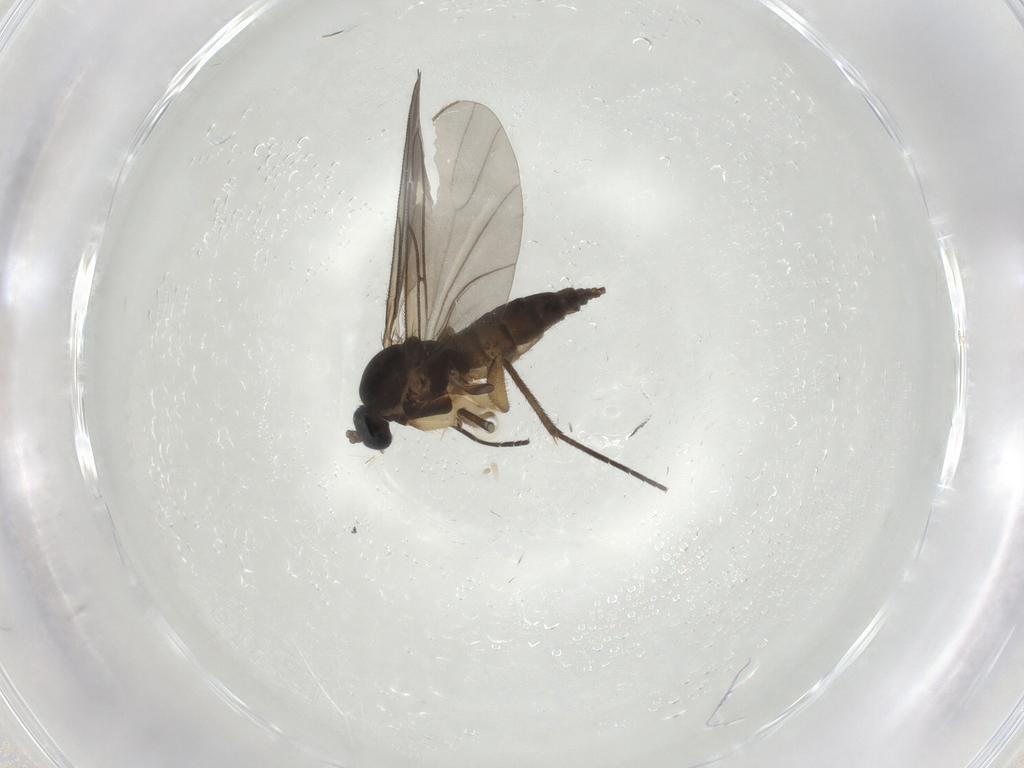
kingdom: Animalia
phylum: Arthropoda
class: Insecta
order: Diptera
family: Sciaridae
